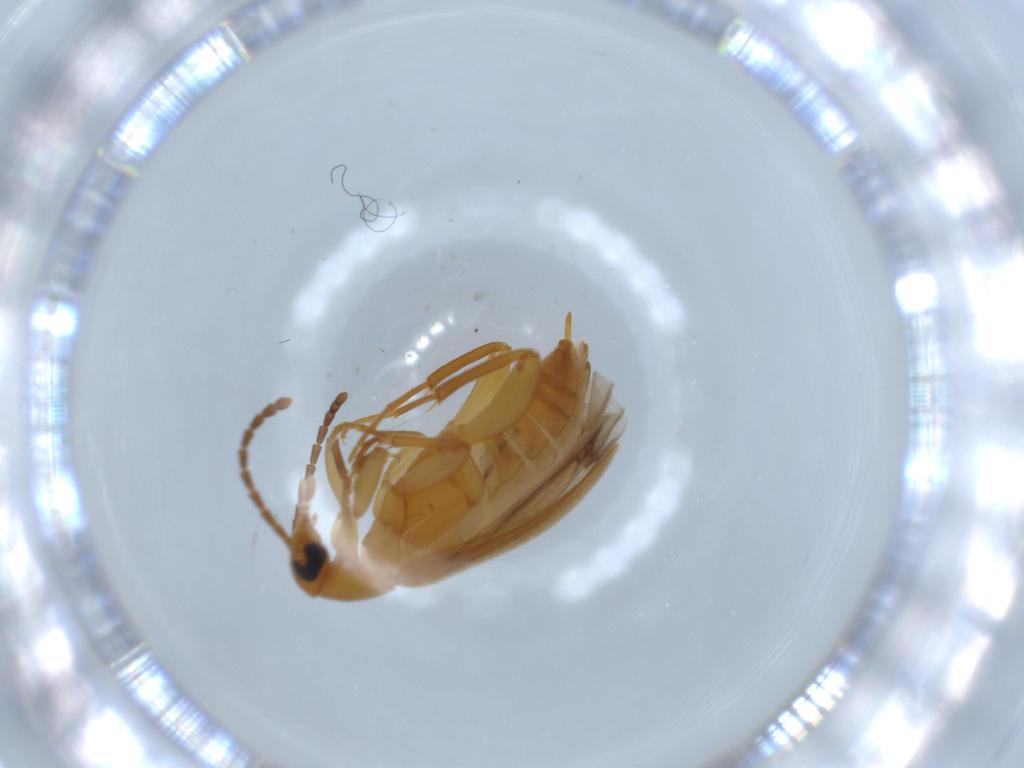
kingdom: Animalia
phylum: Arthropoda
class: Insecta
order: Coleoptera
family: Scraptiidae
